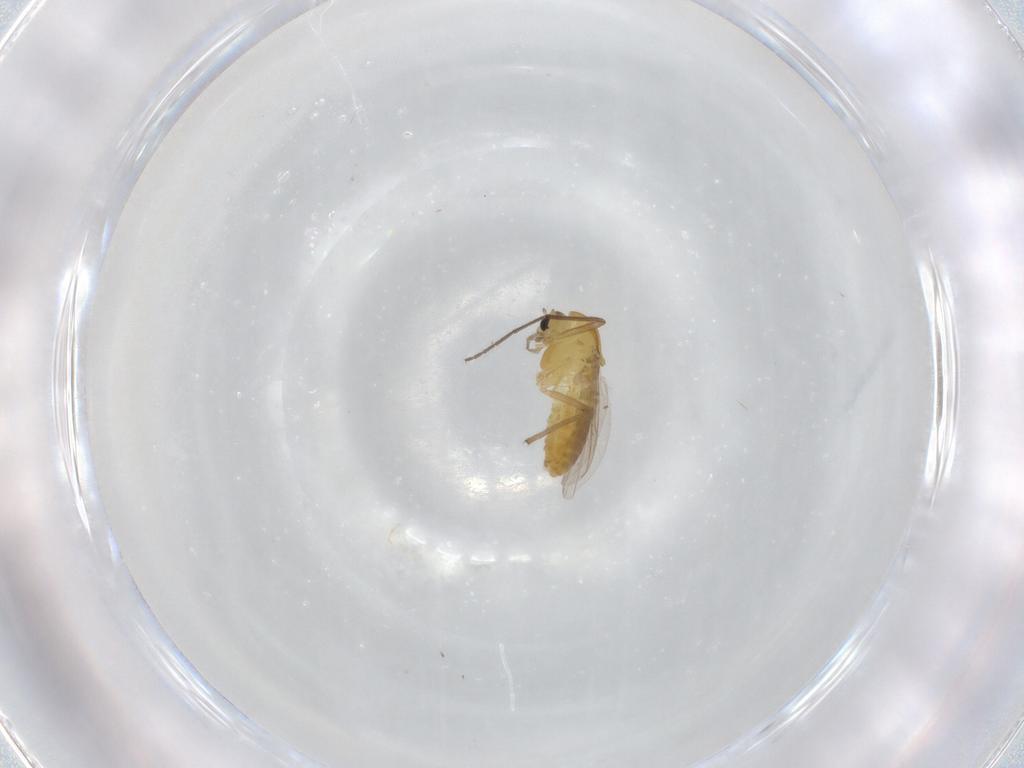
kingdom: Animalia
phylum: Arthropoda
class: Insecta
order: Diptera
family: Chironomidae
